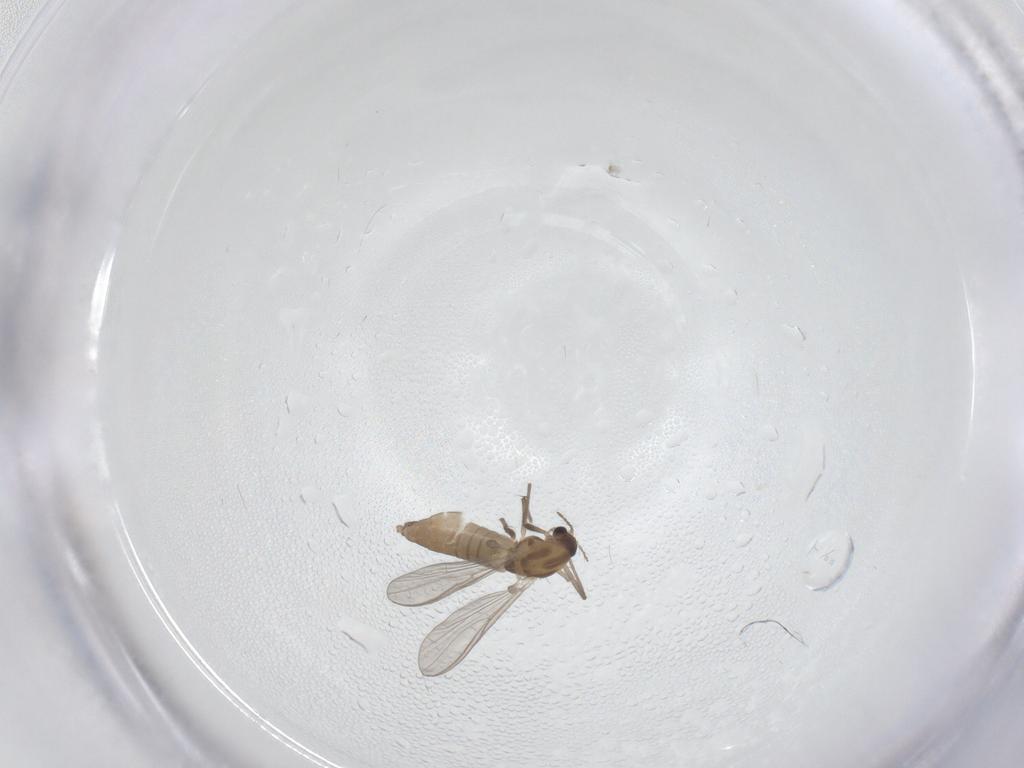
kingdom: Animalia
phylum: Arthropoda
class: Insecta
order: Diptera
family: Chironomidae
